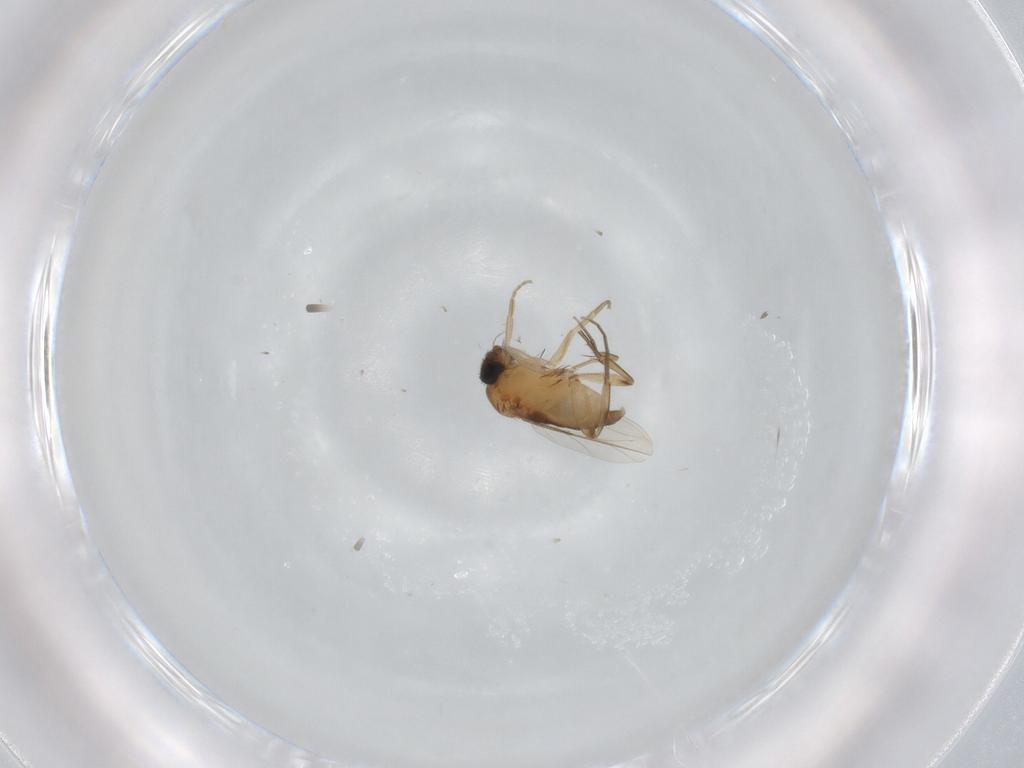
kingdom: Animalia
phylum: Arthropoda
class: Insecta
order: Diptera
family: Phoridae
